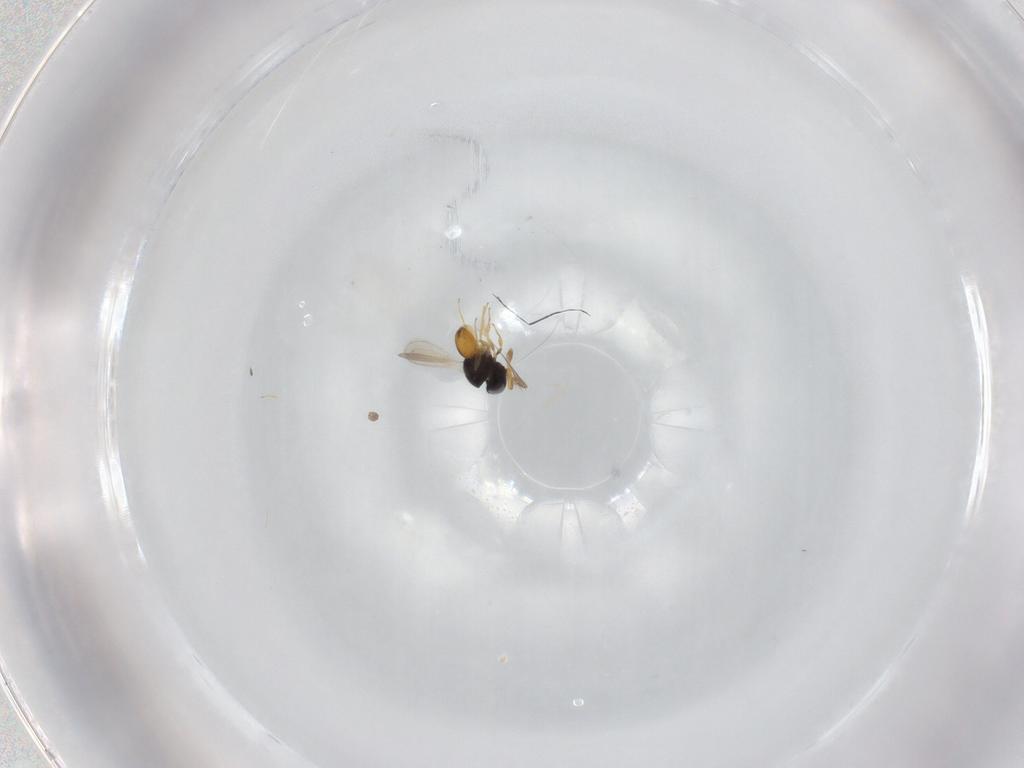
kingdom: Animalia
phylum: Arthropoda
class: Insecta
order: Hymenoptera
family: Scelionidae
